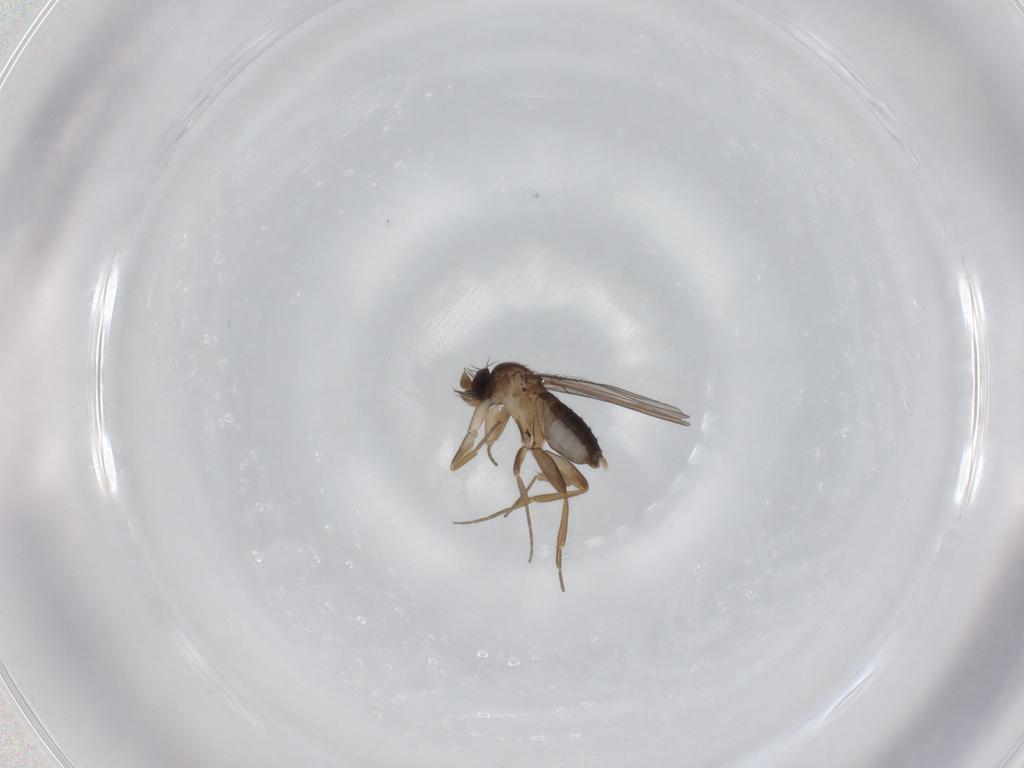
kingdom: Animalia
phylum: Arthropoda
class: Insecta
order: Diptera
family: Phoridae
